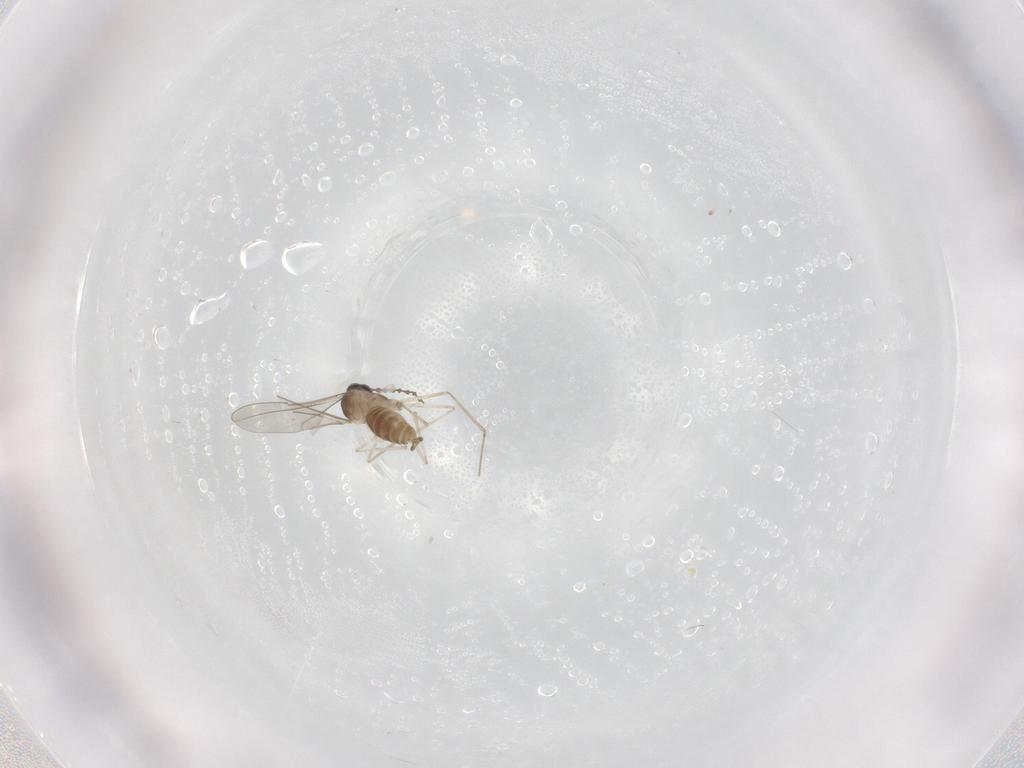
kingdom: Animalia
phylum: Arthropoda
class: Insecta
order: Diptera
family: Cecidomyiidae
